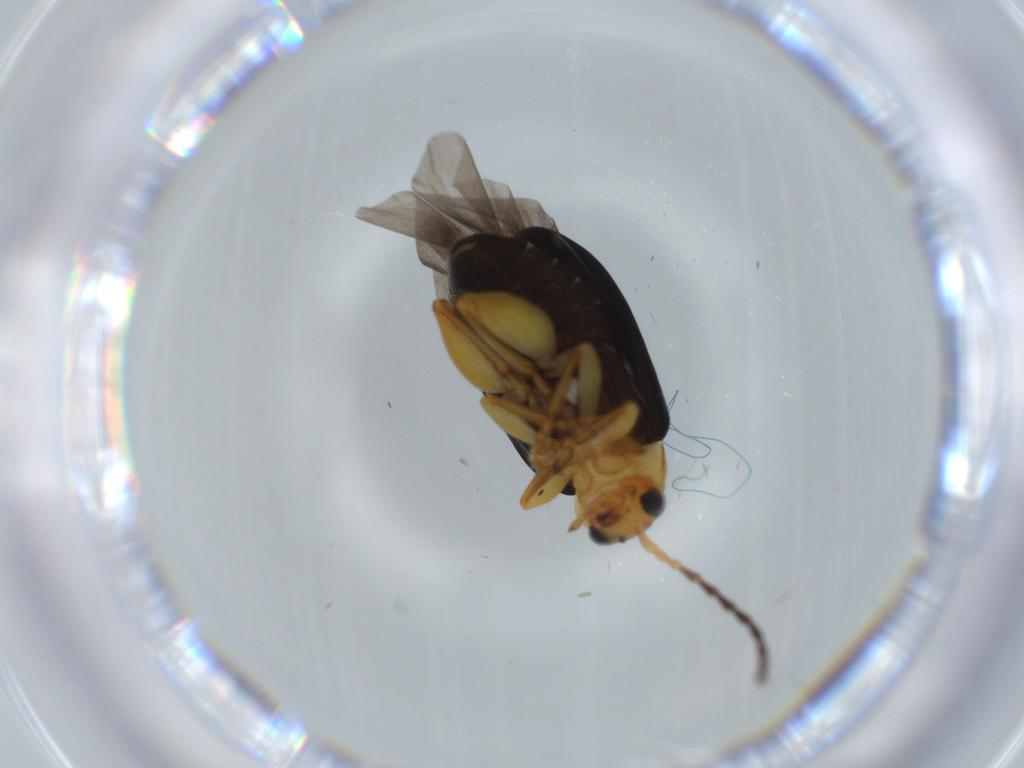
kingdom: Animalia
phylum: Arthropoda
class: Insecta
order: Coleoptera
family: Chrysomelidae
